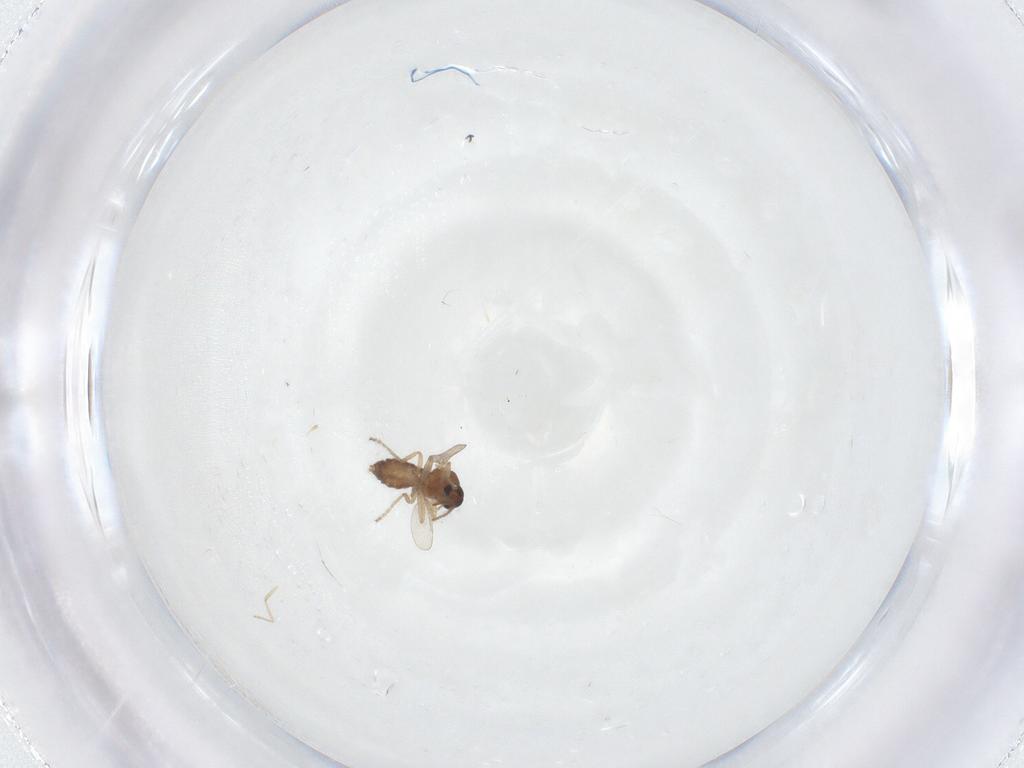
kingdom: Animalia
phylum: Arthropoda
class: Insecta
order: Diptera
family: Ceratopogonidae
